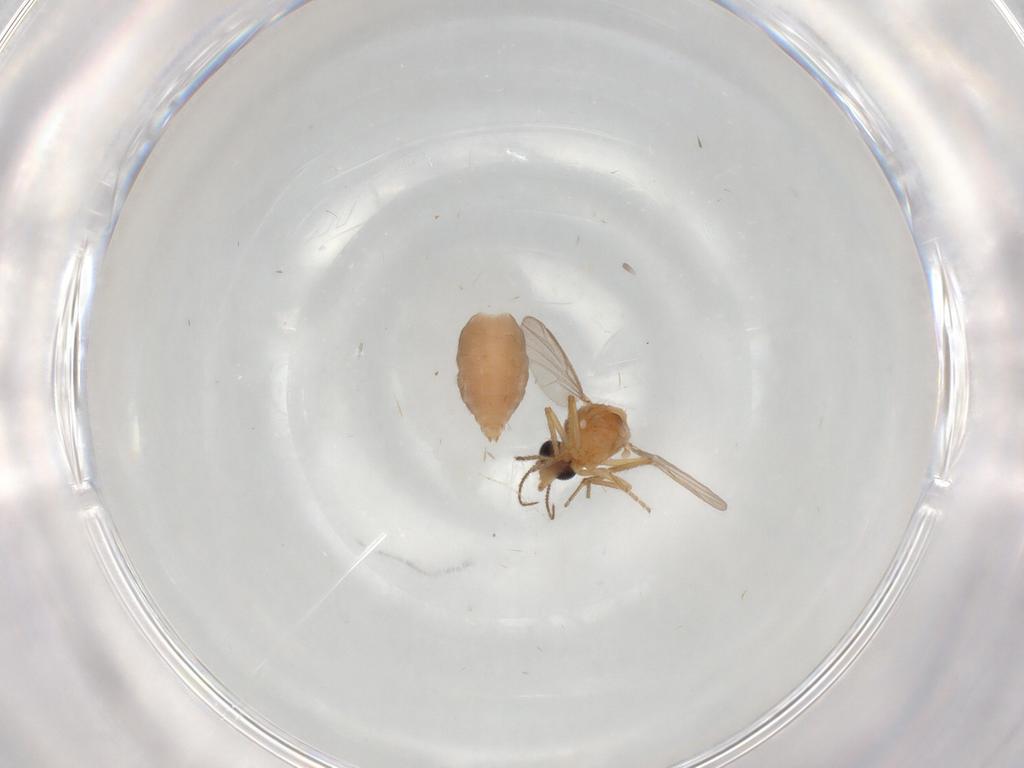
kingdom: Animalia
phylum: Arthropoda
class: Insecta
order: Diptera
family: Ceratopogonidae
